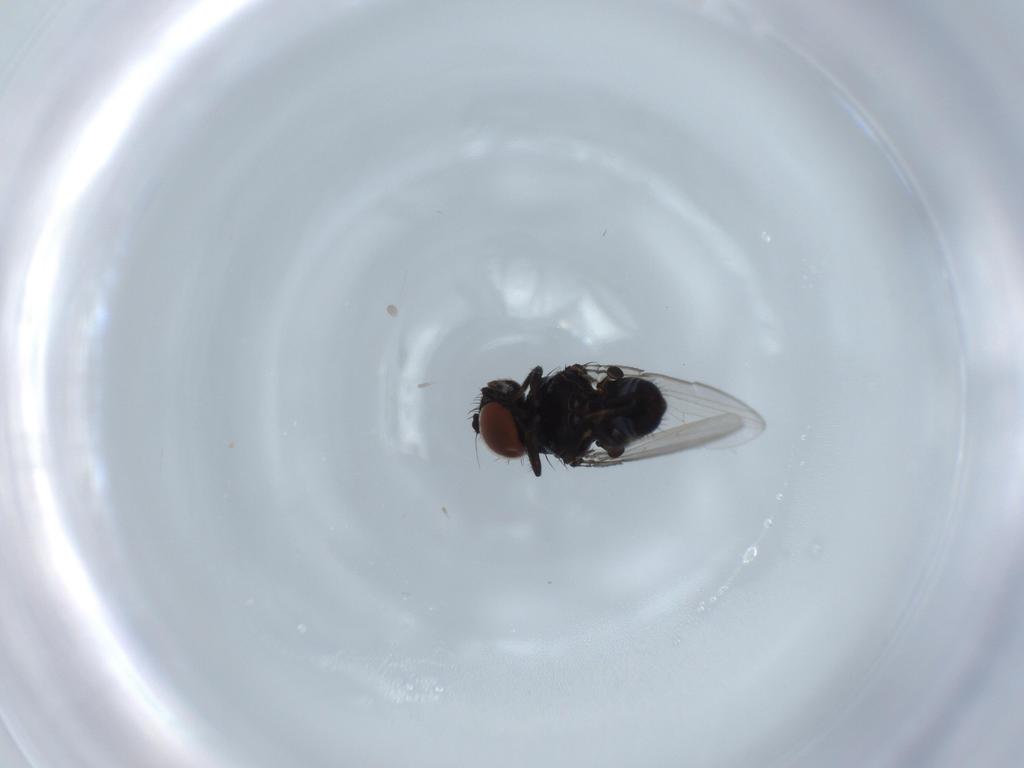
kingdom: Animalia
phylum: Arthropoda
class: Insecta
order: Diptera
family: Milichiidae
